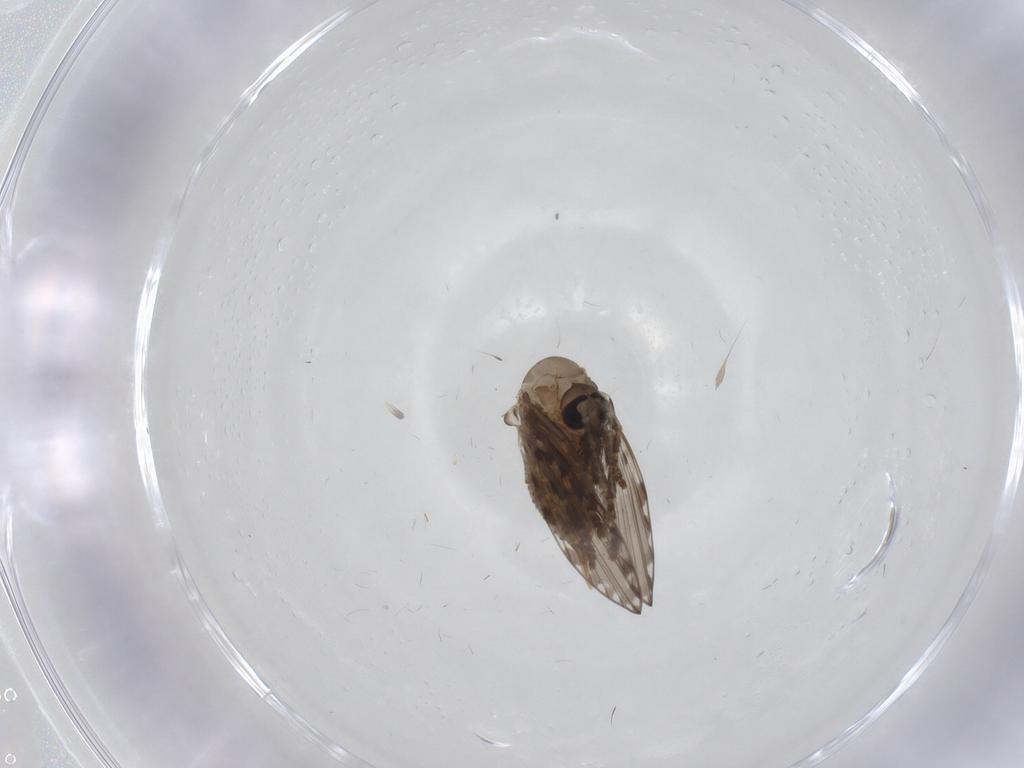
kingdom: Animalia
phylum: Arthropoda
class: Insecta
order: Diptera
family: Psychodidae
